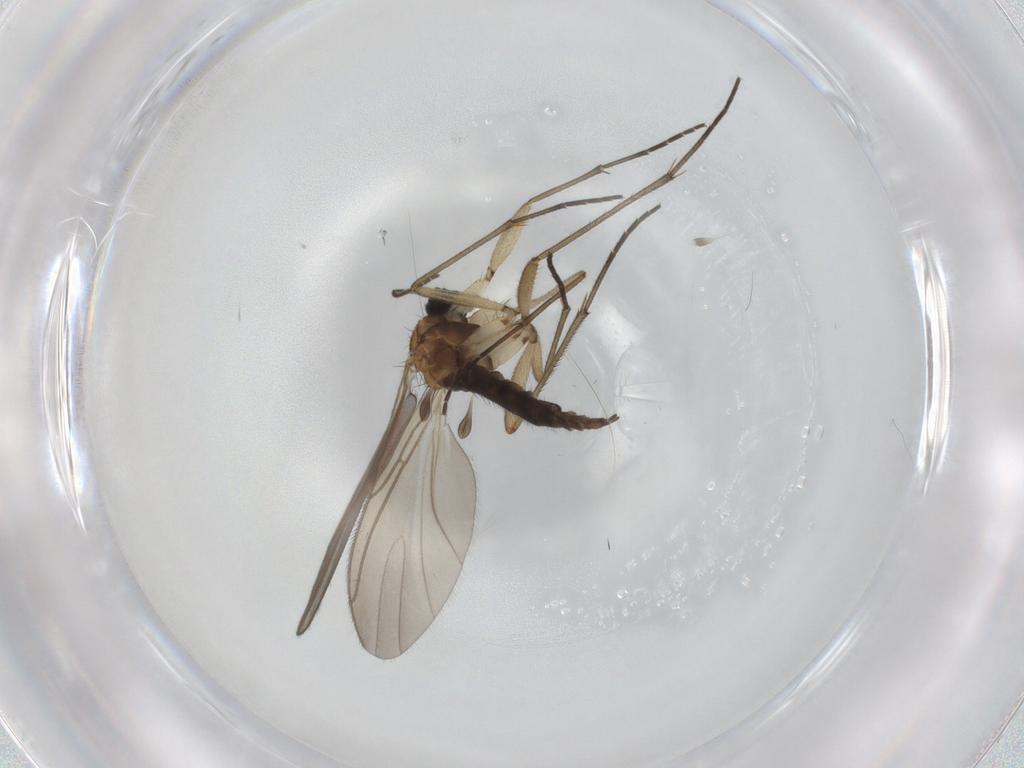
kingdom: Animalia
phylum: Arthropoda
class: Insecta
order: Diptera
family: Sciaridae
